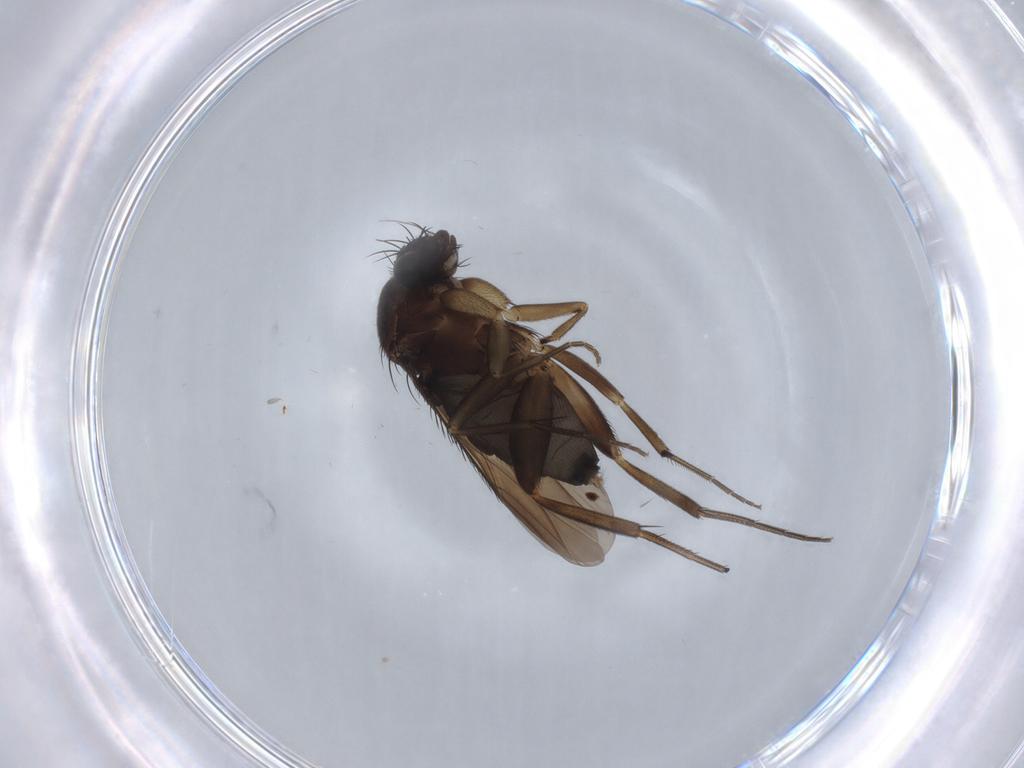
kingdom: Animalia
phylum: Arthropoda
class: Insecta
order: Diptera
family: Phoridae
